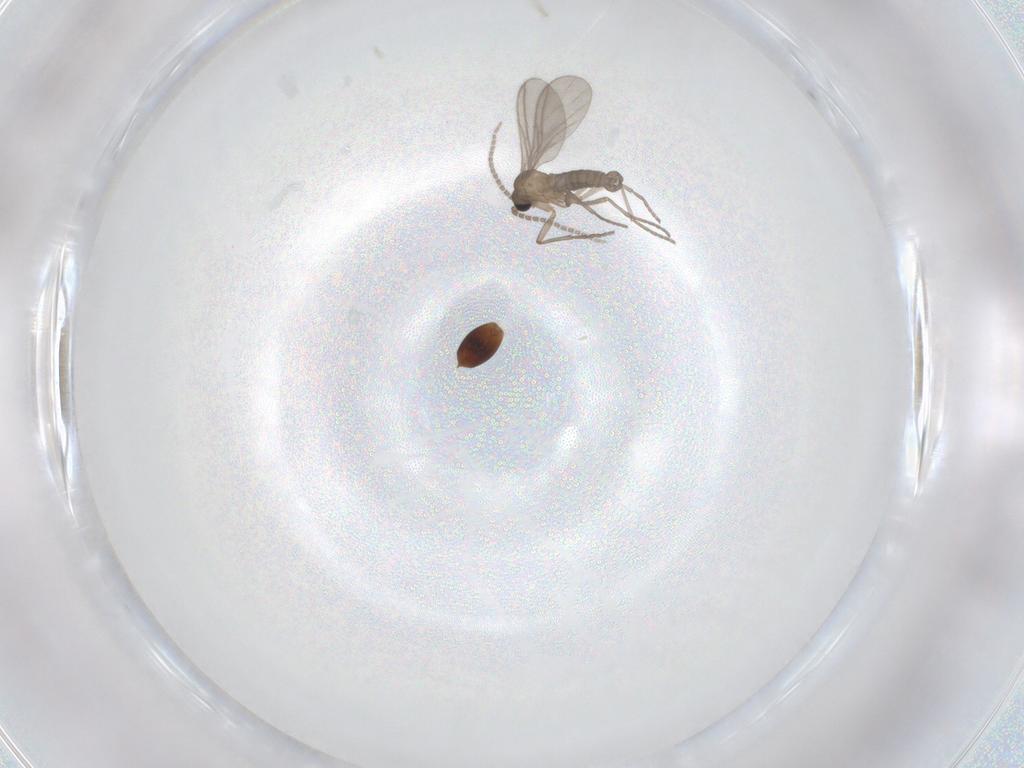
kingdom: Animalia
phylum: Arthropoda
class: Insecta
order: Diptera
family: Sciaridae
